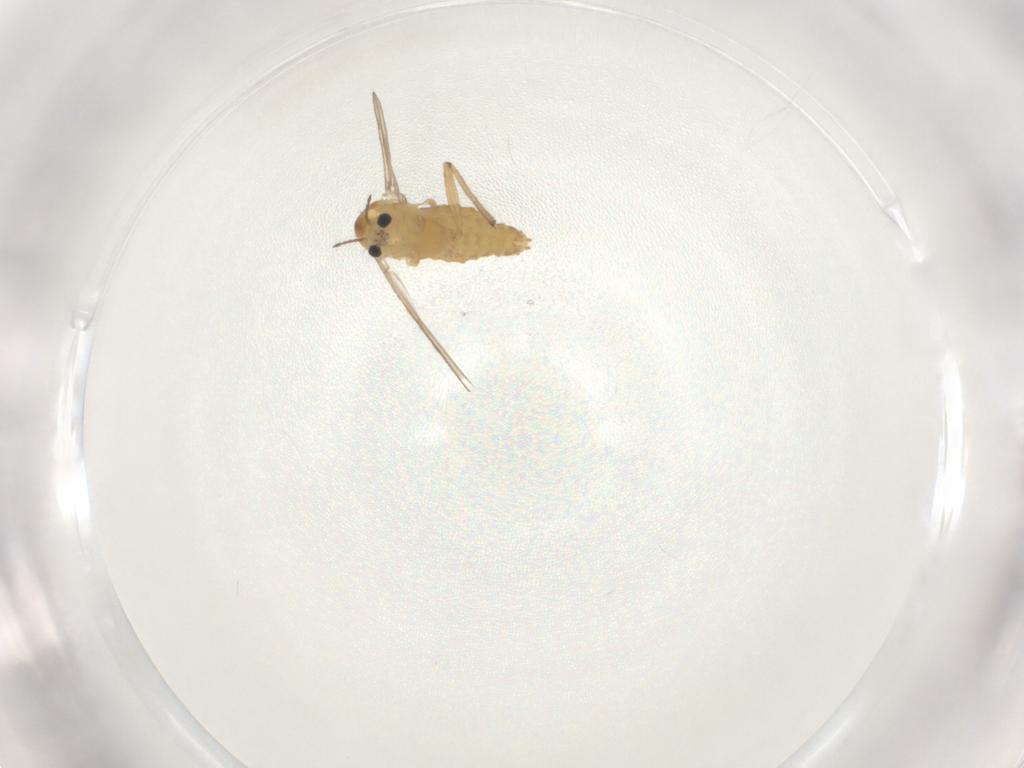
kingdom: Animalia
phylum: Arthropoda
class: Insecta
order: Diptera
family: Chironomidae
